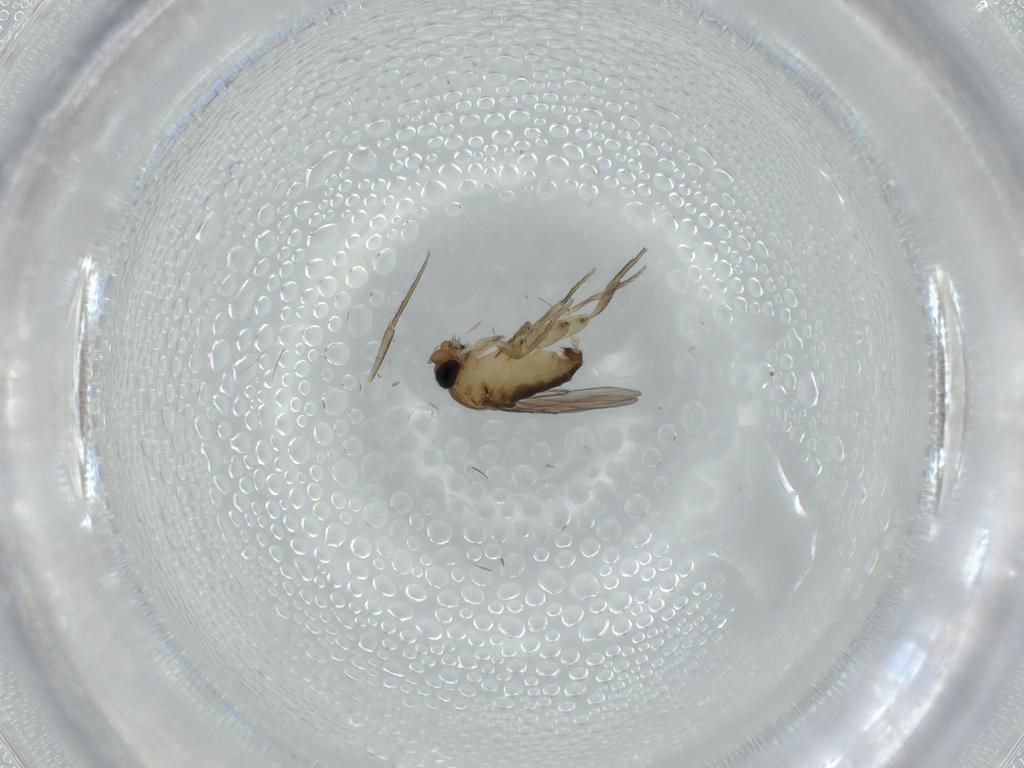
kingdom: Animalia
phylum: Arthropoda
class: Insecta
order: Diptera
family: Phoridae
